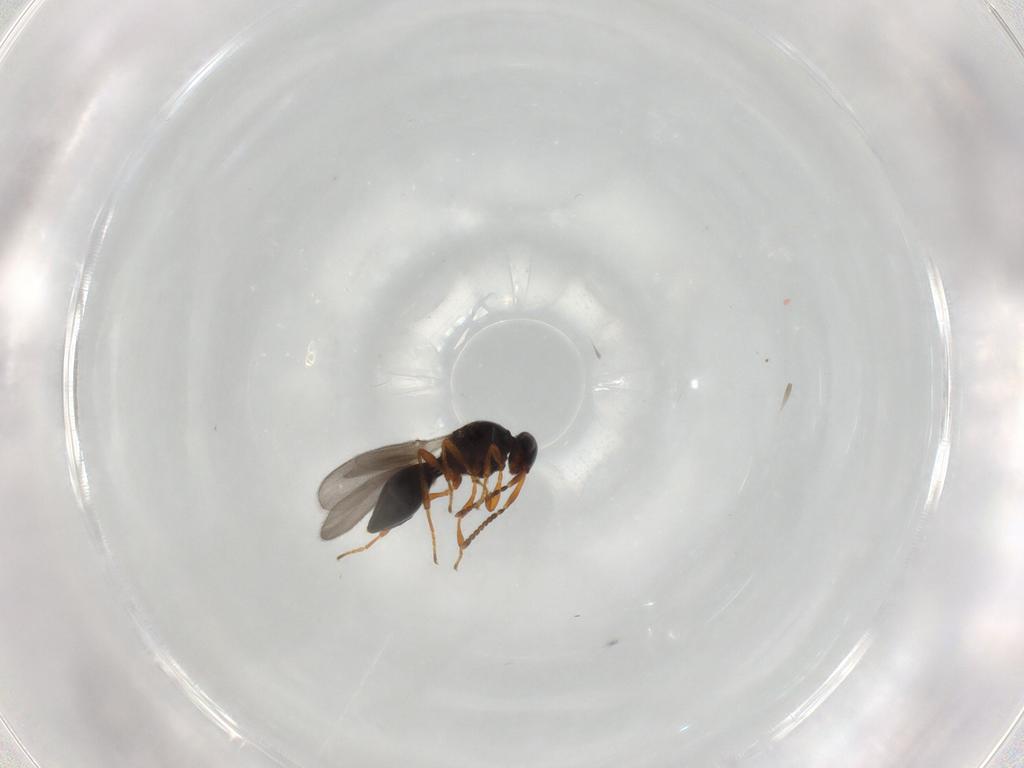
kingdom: Animalia
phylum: Arthropoda
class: Insecta
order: Hymenoptera
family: Platygastridae
